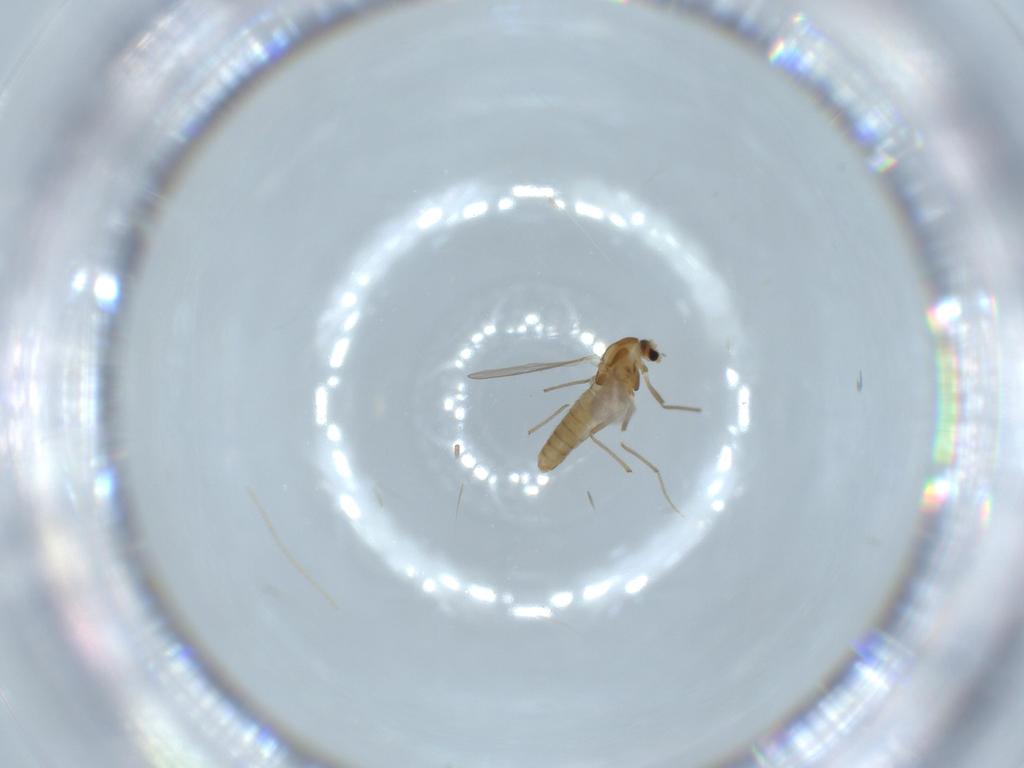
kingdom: Animalia
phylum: Arthropoda
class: Insecta
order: Diptera
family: Chironomidae
